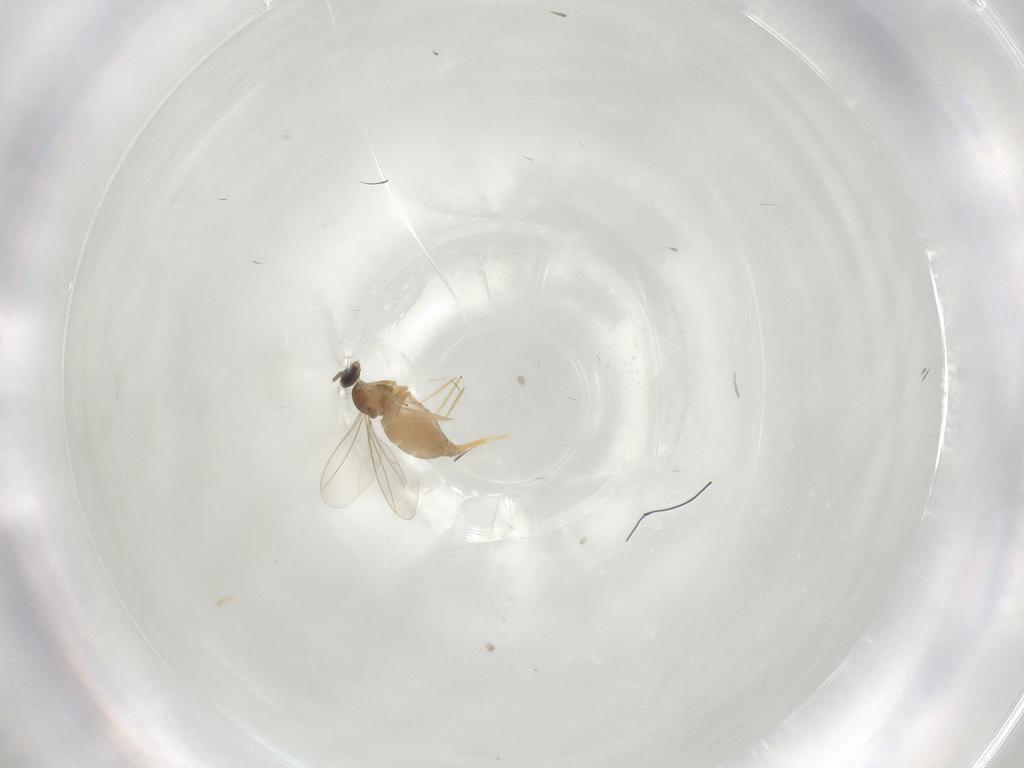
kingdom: Animalia
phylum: Arthropoda
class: Insecta
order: Diptera
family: Cecidomyiidae
